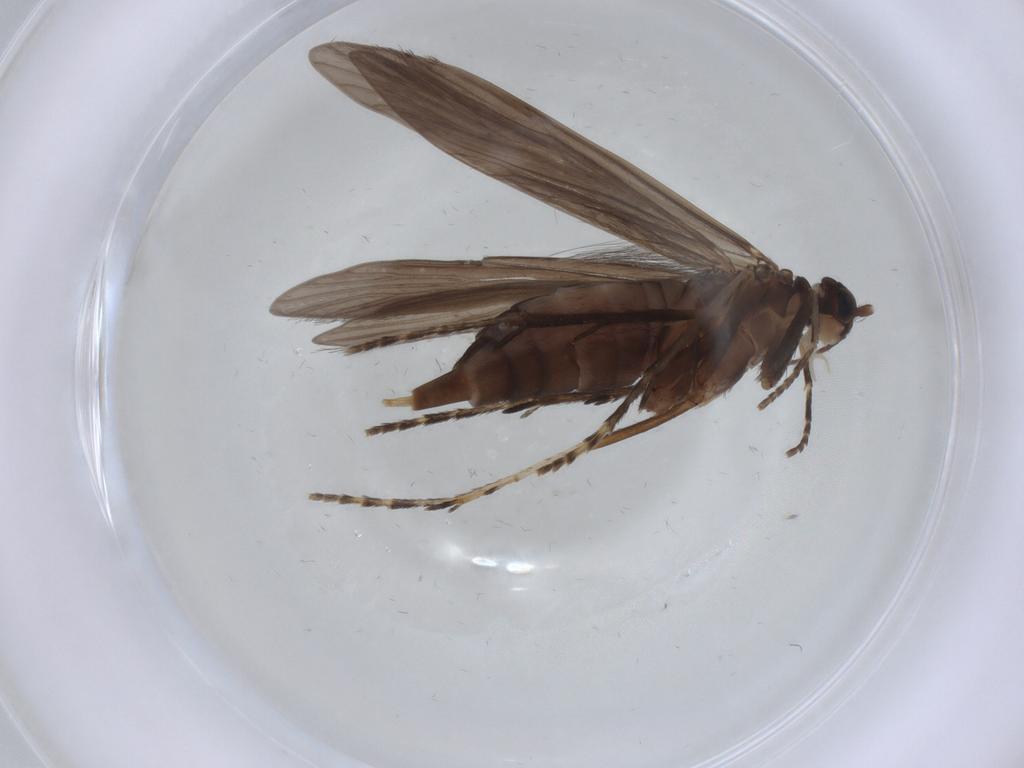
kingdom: Animalia
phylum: Arthropoda
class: Insecta
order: Trichoptera
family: Xiphocentronidae
